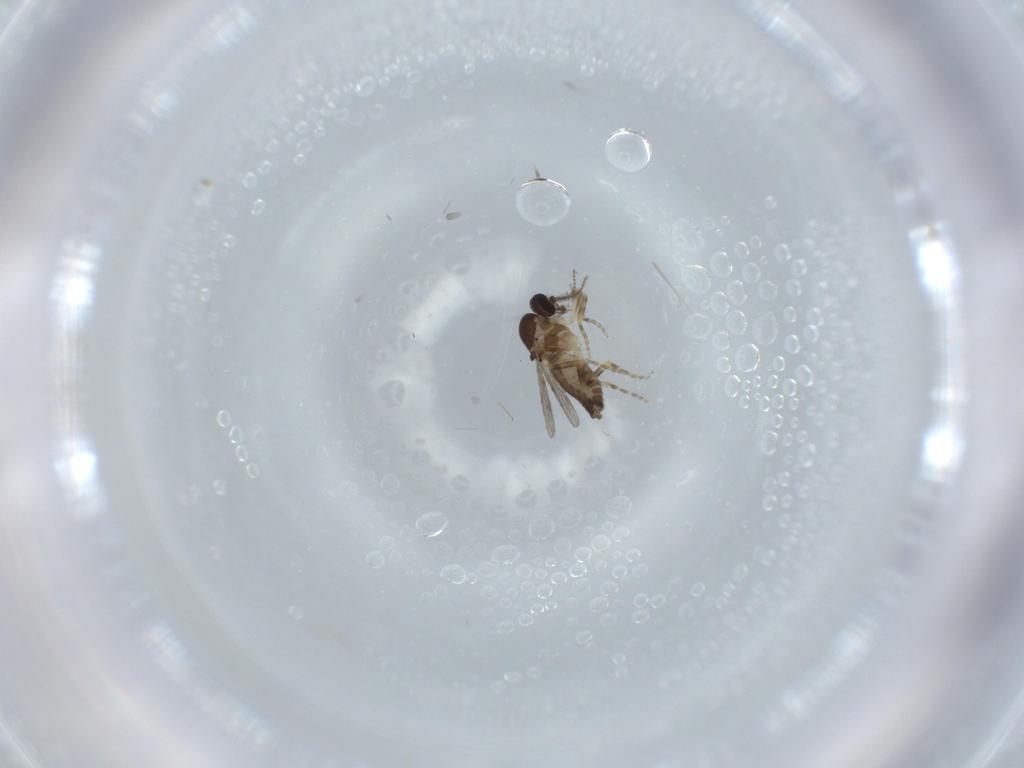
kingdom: Animalia
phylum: Arthropoda
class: Insecta
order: Diptera
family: Ceratopogonidae
